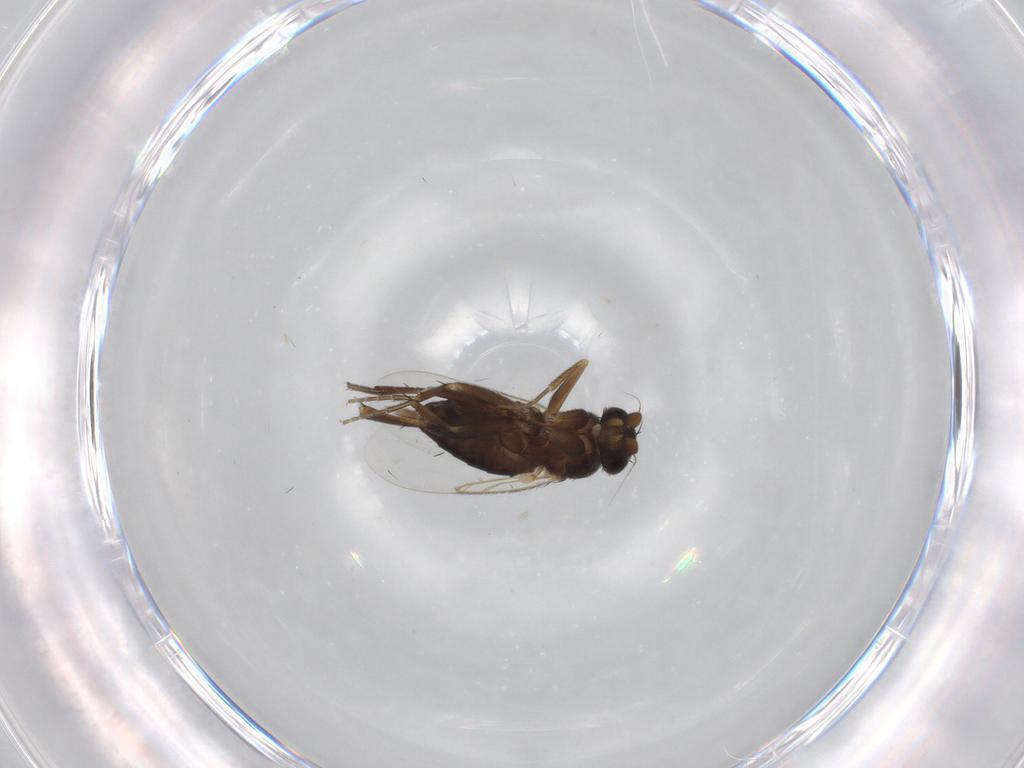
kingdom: Animalia
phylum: Arthropoda
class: Insecta
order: Diptera
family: Phoridae
